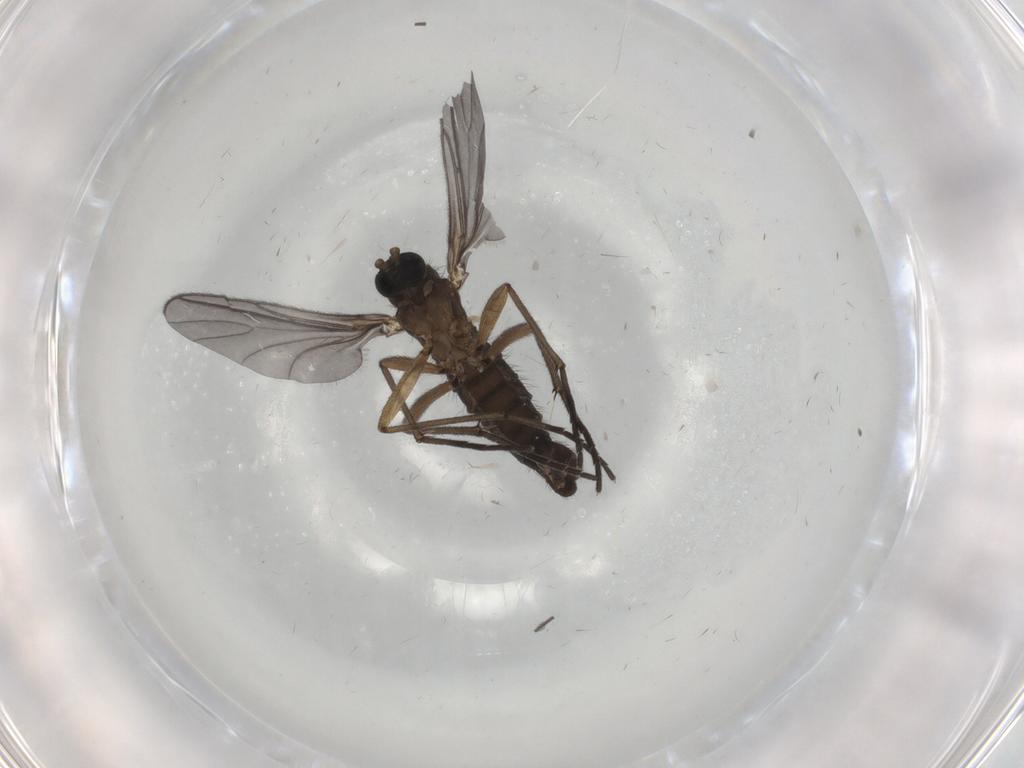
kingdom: Animalia
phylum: Arthropoda
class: Insecta
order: Diptera
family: Sciaridae
